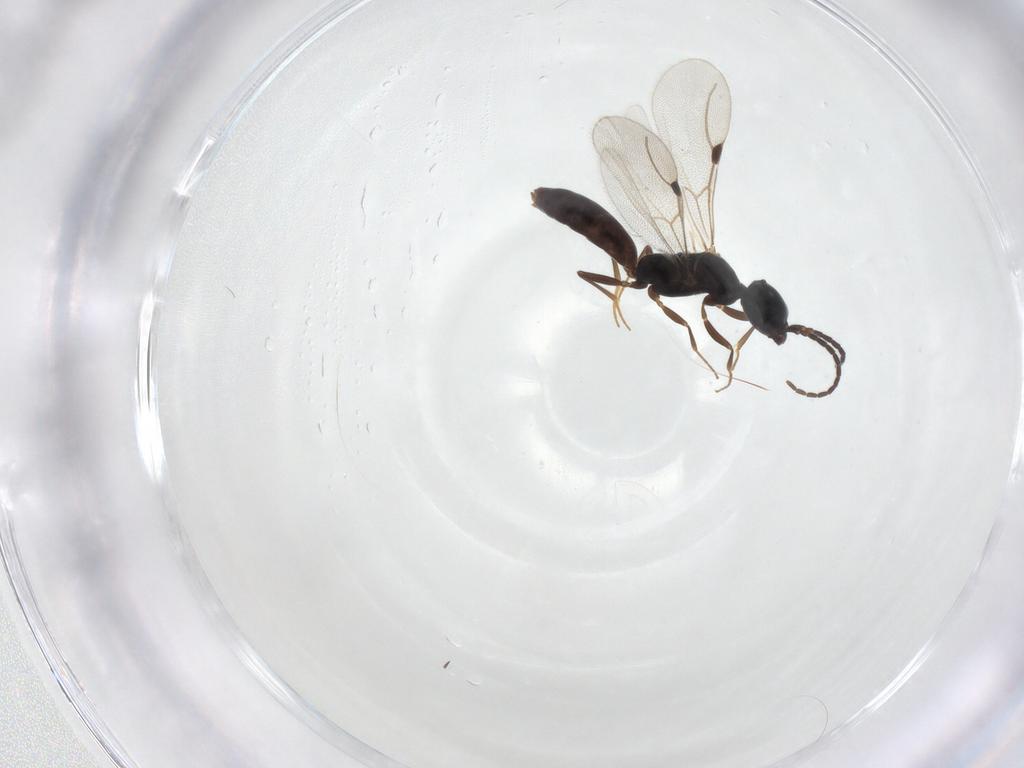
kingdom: Animalia
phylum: Arthropoda
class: Insecta
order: Hymenoptera
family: Bethylidae
